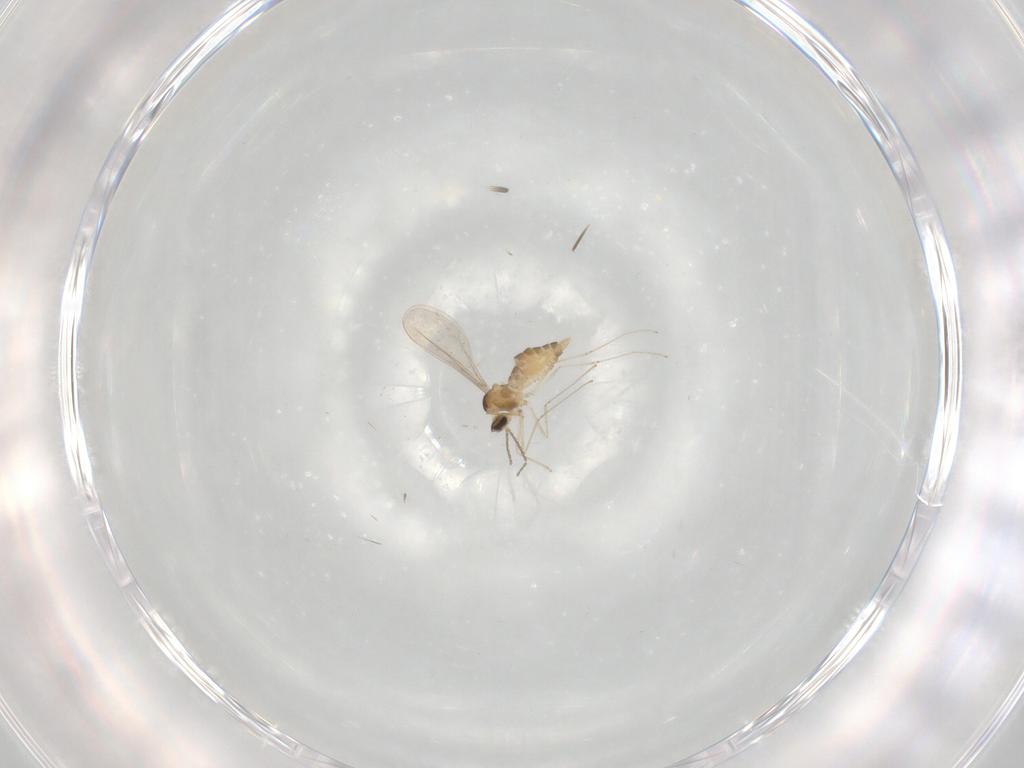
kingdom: Animalia
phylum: Arthropoda
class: Insecta
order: Diptera
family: Cecidomyiidae
